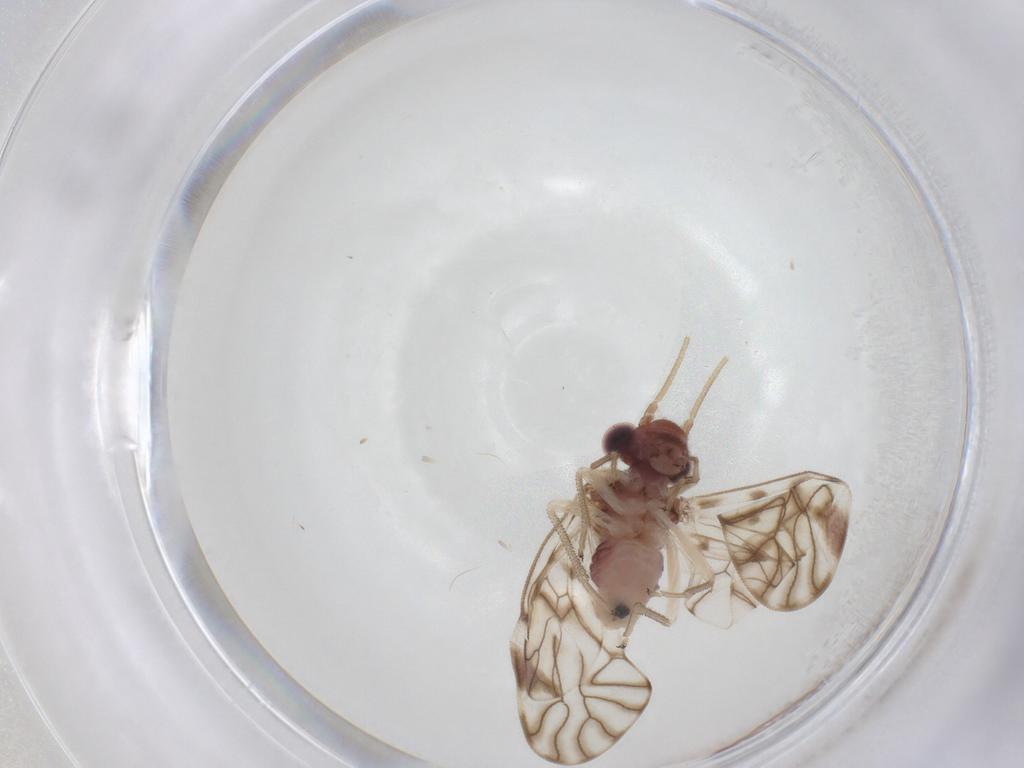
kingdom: Animalia
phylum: Arthropoda
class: Insecta
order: Psocodea
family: Amphipsocidae
